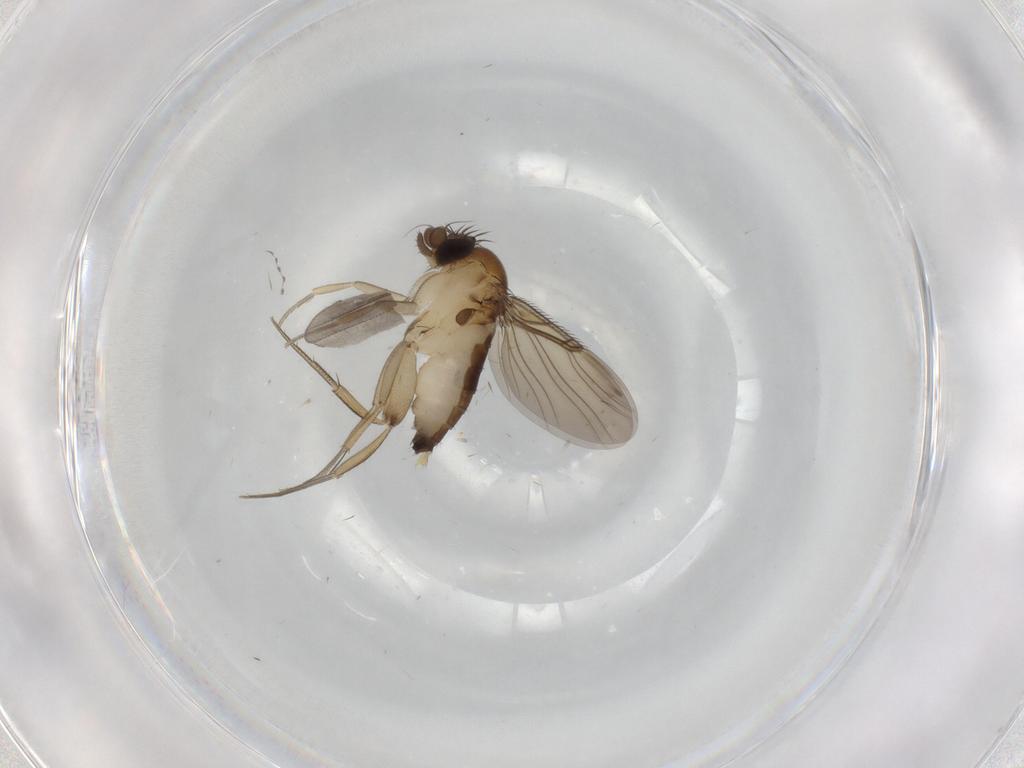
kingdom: Animalia
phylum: Arthropoda
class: Insecta
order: Diptera
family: Phoridae
